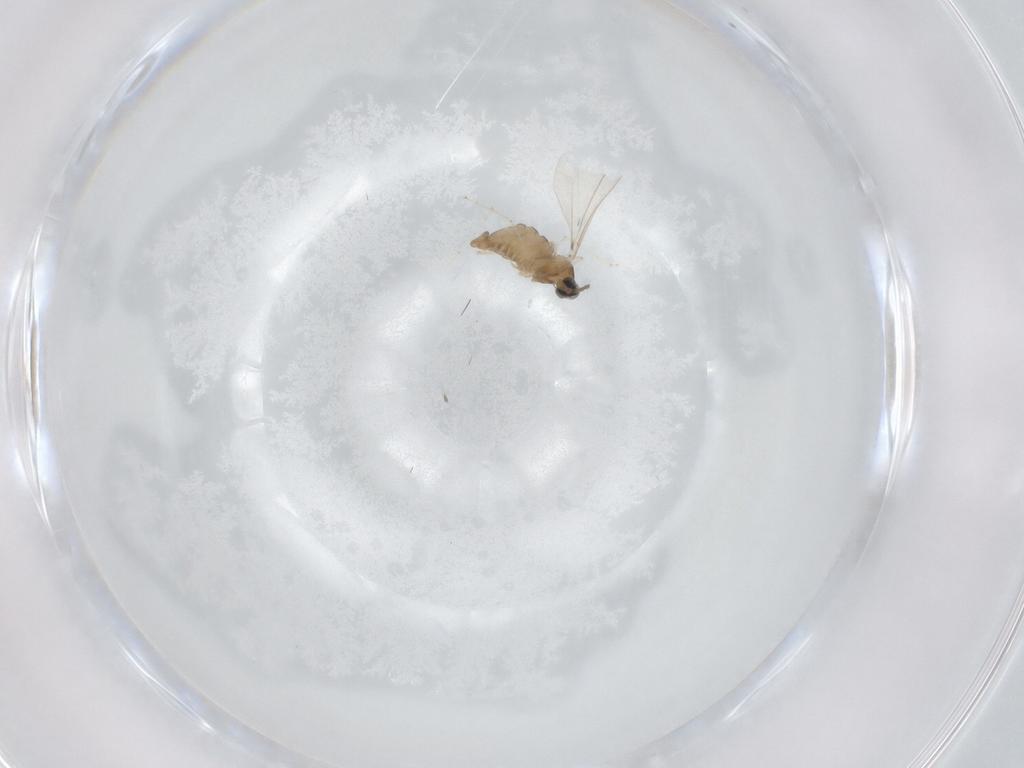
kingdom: Animalia
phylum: Arthropoda
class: Insecta
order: Diptera
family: Cecidomyiidae
